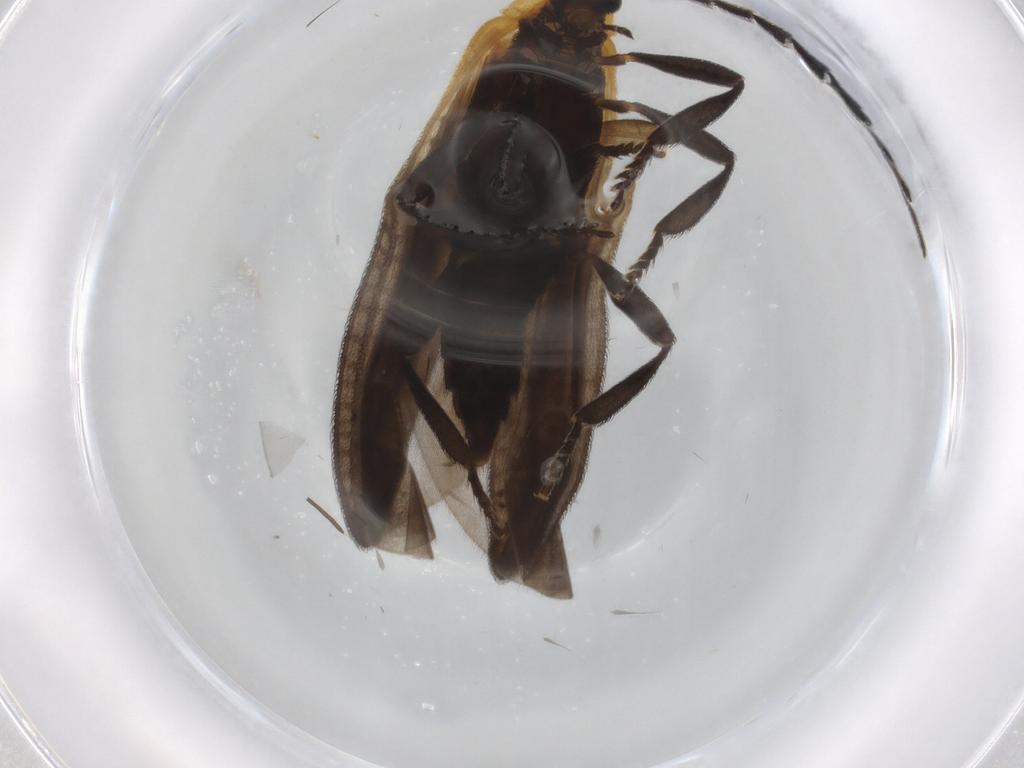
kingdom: Animalia
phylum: Arthropoda
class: Insecta
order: Coleoptera
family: Lycidae
